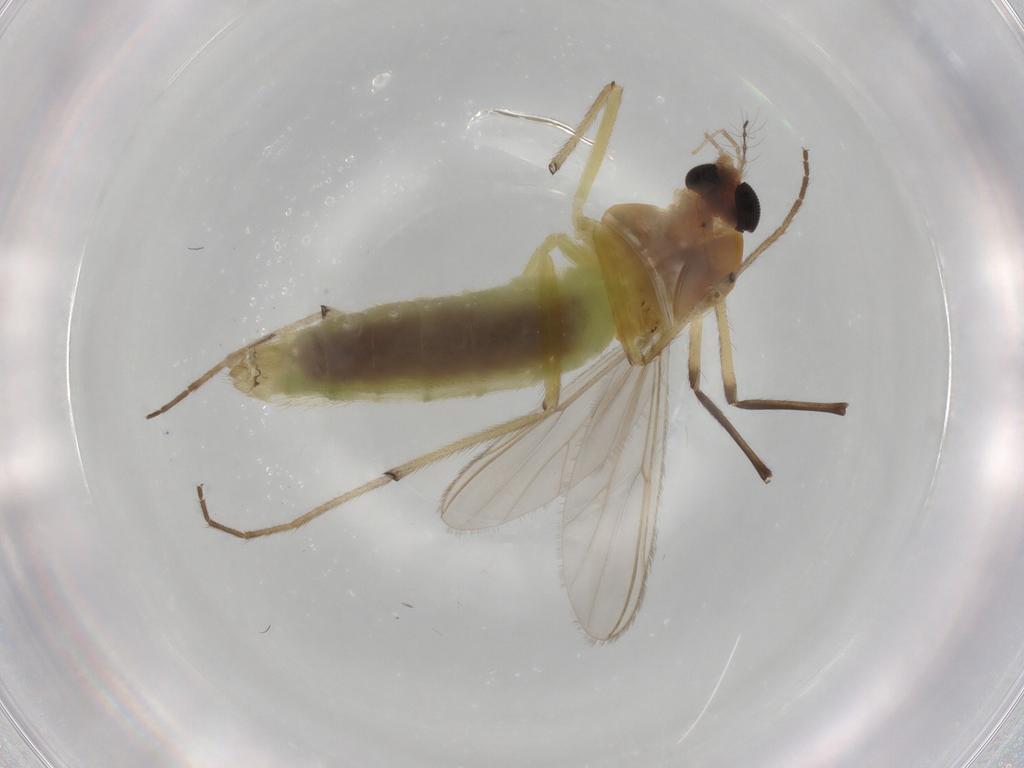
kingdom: Animalia
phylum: Arthropoda
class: Insecta
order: Diptera
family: Chironomidae
